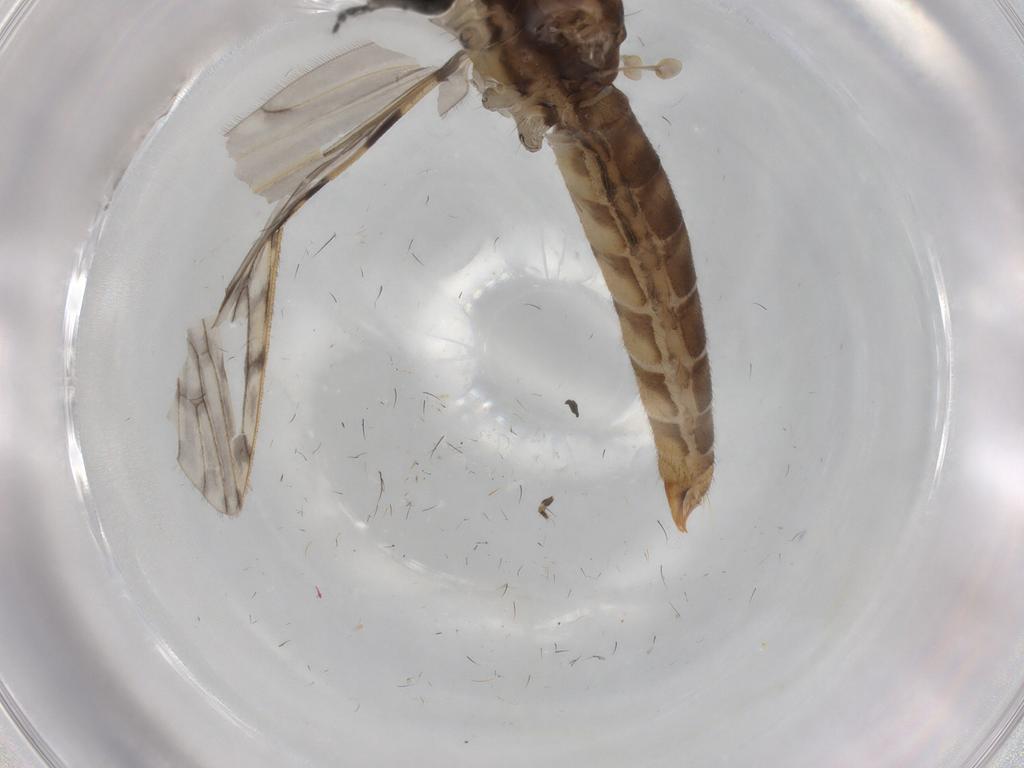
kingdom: Animalia
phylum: Arthropoda
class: Insecta
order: Diptera
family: Limoniidae
